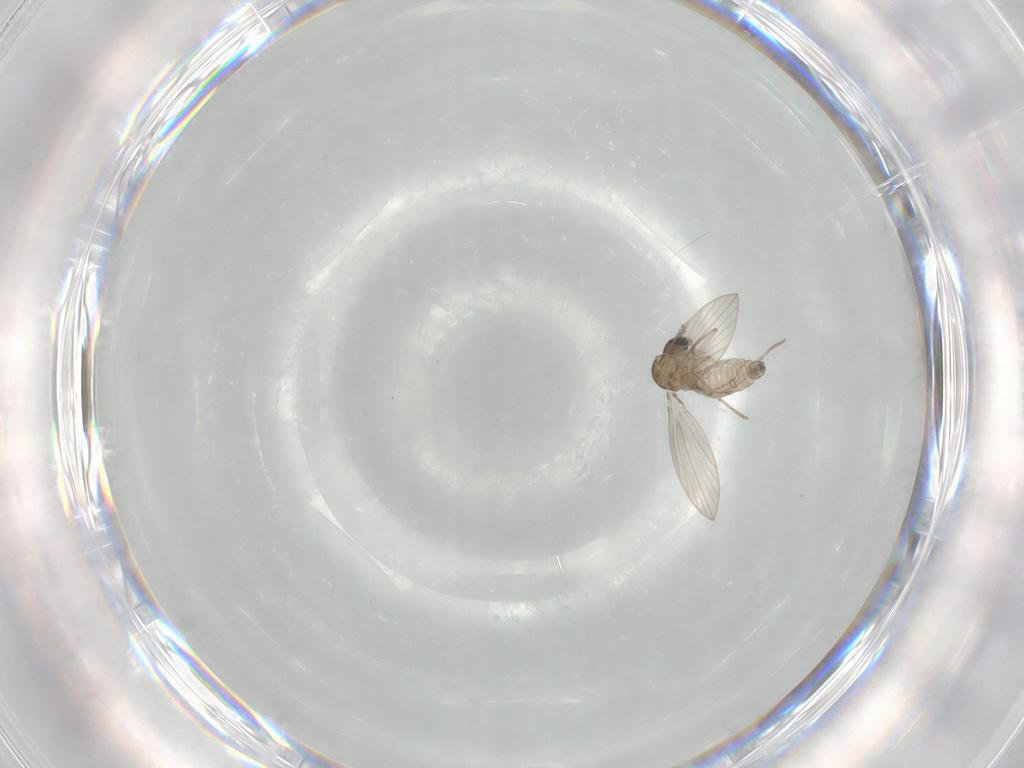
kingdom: Animalia
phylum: Arthropoda
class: Insecta
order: Diptera
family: Psychodidae
